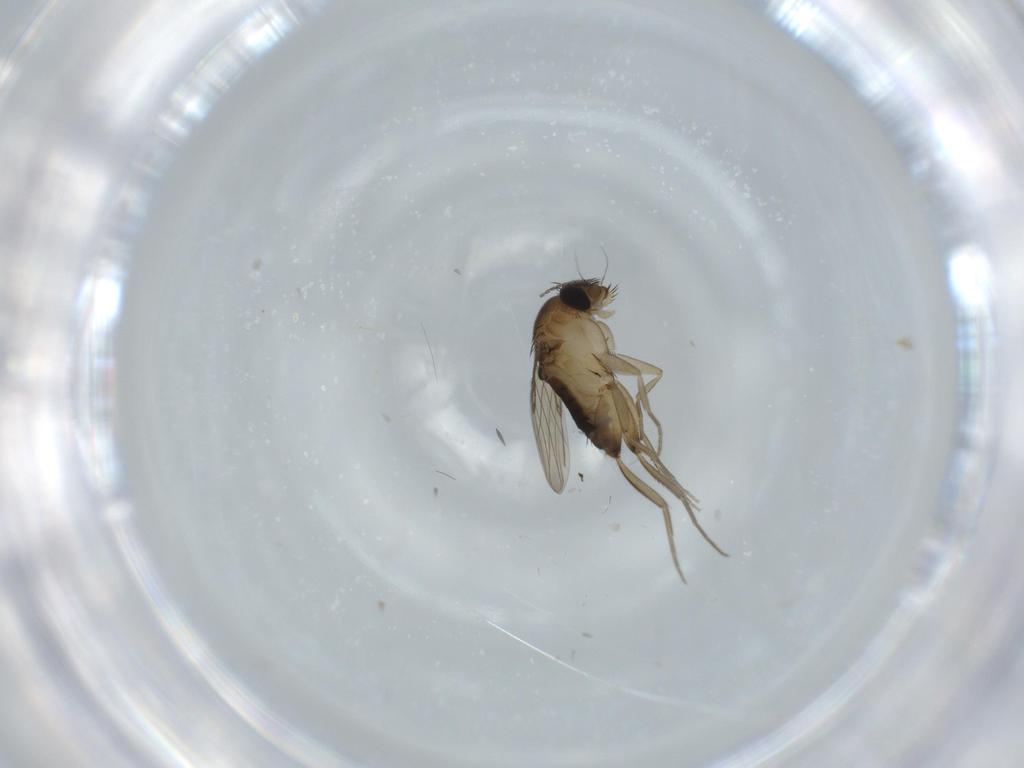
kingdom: Animalia
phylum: Arthropoda
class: Insecta
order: Diptera
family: Phoridae
